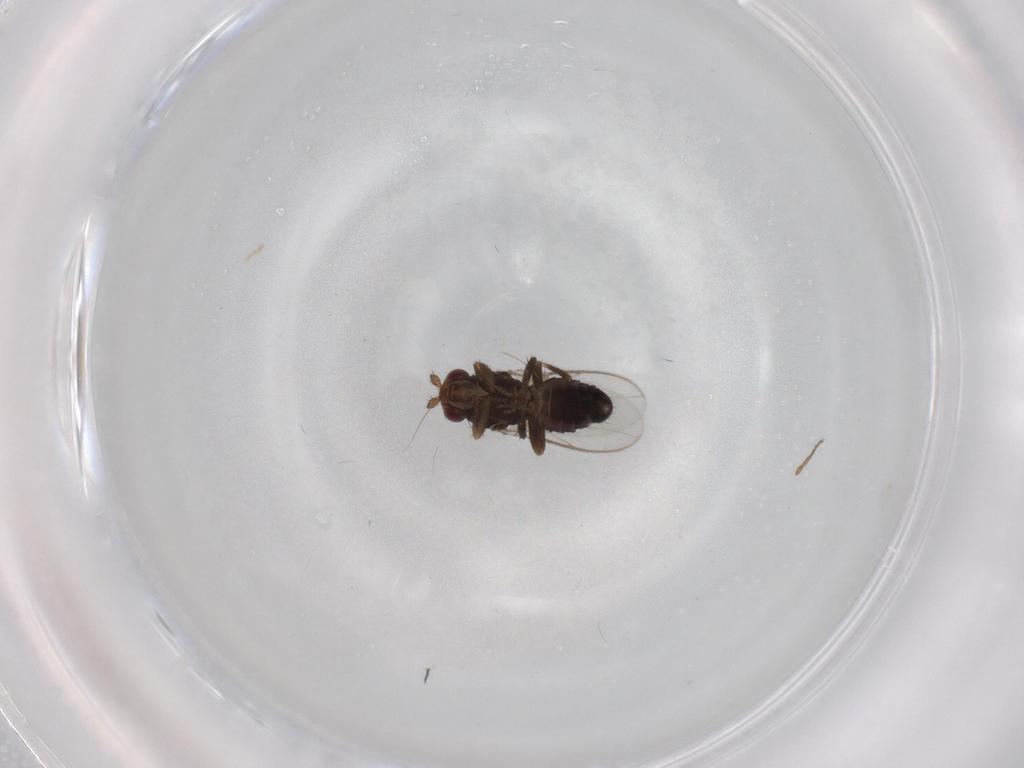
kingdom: Animalia
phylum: Arthropoda
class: Insecta
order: Diptera
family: Sphaeroceridae
